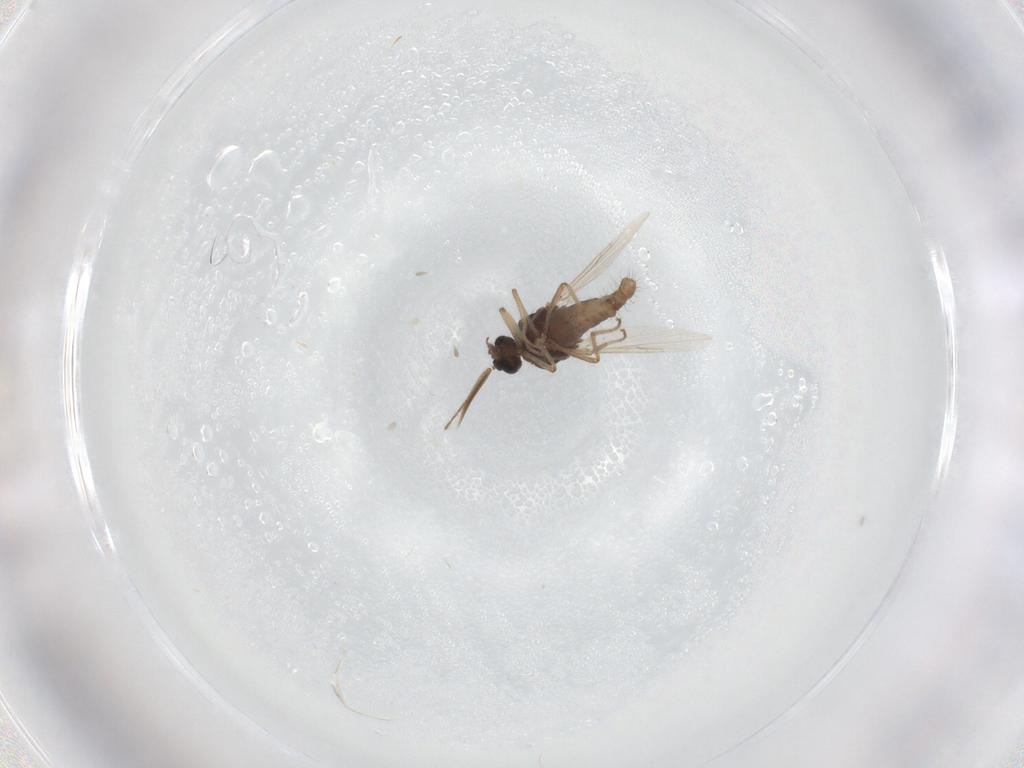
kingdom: Animalia
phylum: Arthropoda
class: Insecta
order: Diptera
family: Ceratopogonidae
